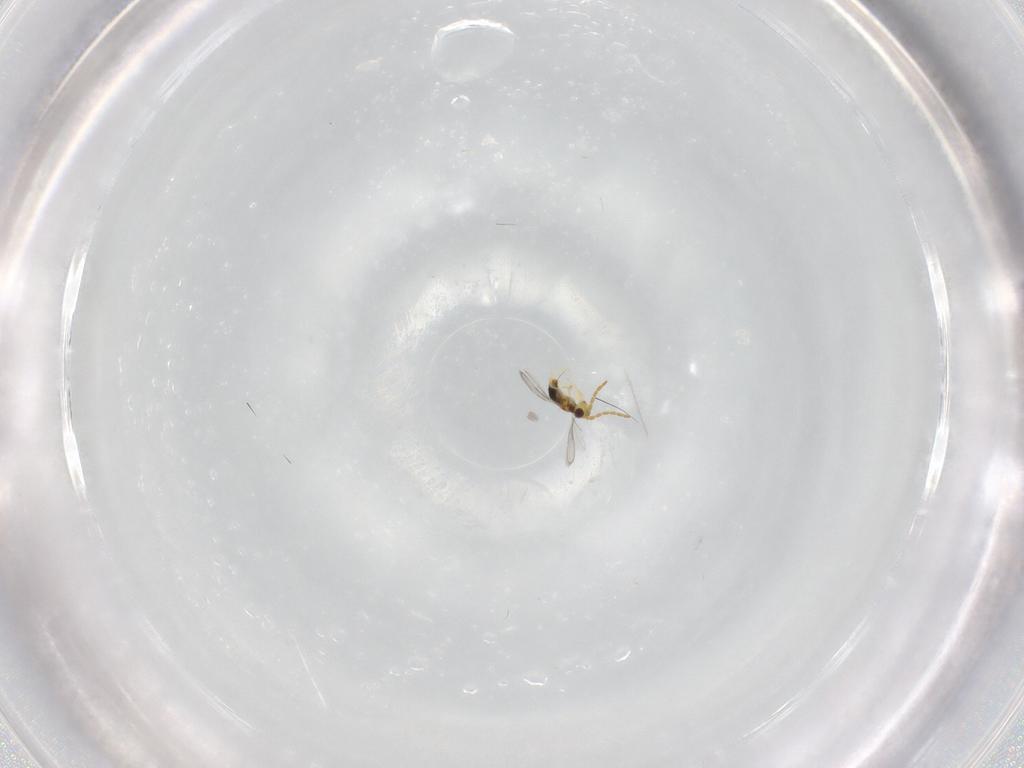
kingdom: Animalia
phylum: Arthropoda
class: Insecta
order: Hymenoptera
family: Aphelinidae
